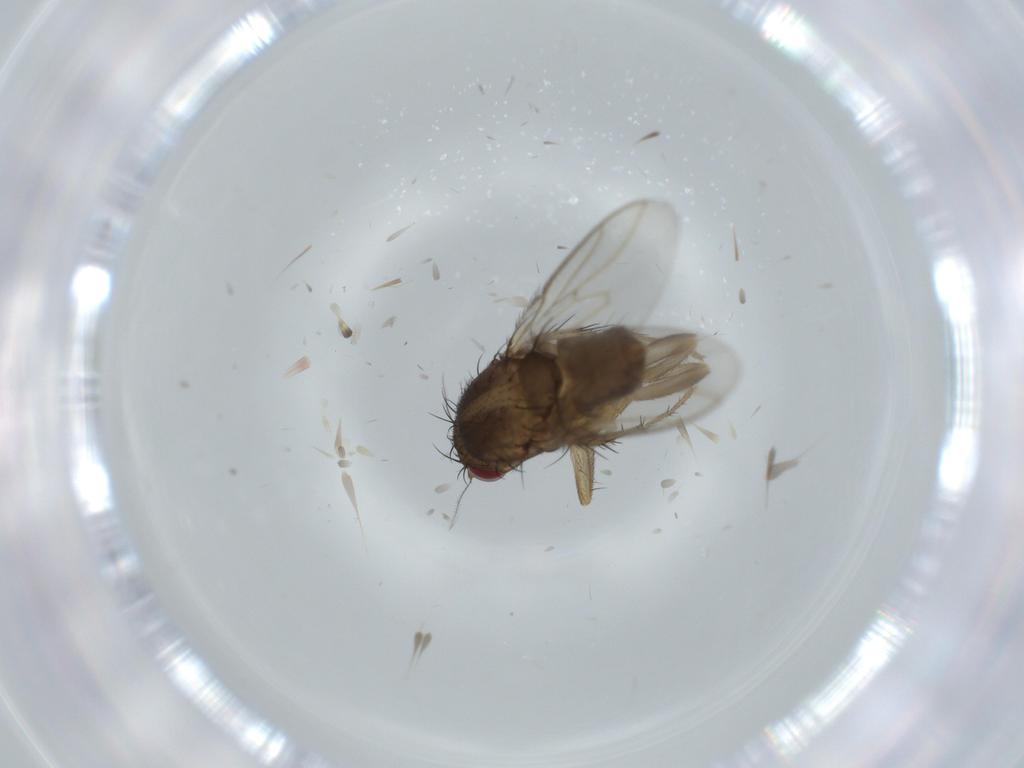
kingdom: Animalia
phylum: Arthropoda
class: Insecta
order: Diptera
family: Sphaeroceridae
